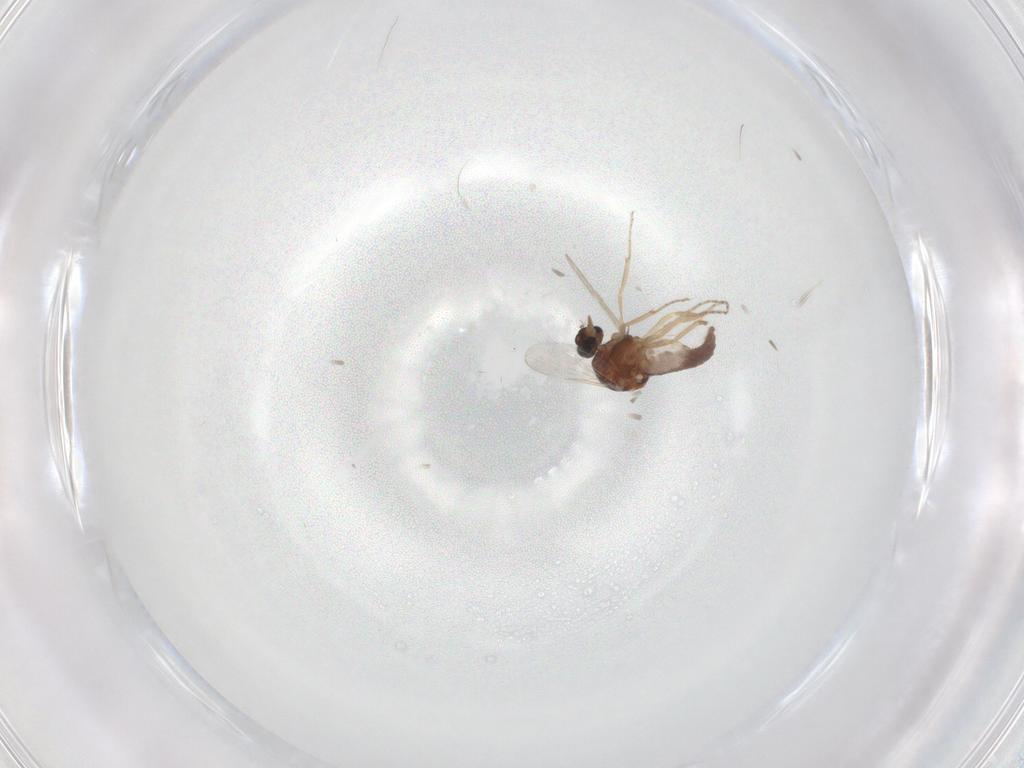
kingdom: Animalia
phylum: Arthropoda
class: Insecta
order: Diptera
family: Ceratopogonidae
